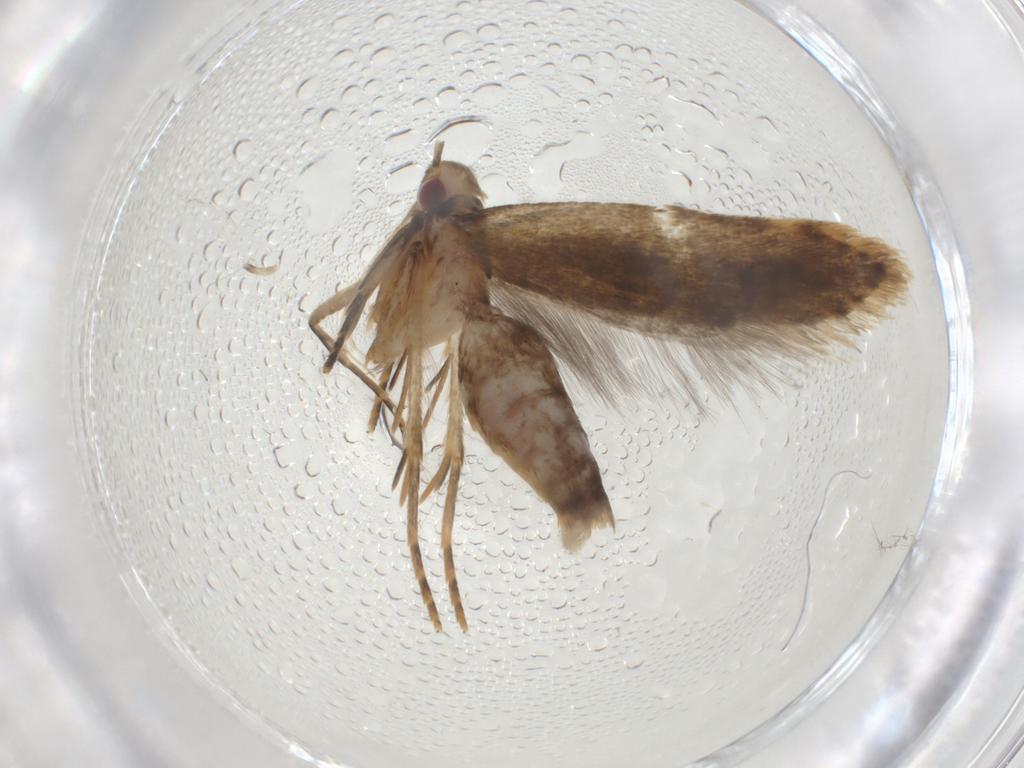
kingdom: Animalia
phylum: Arthropoda
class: Insecta
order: Lepidoptera
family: Gelechiidae
